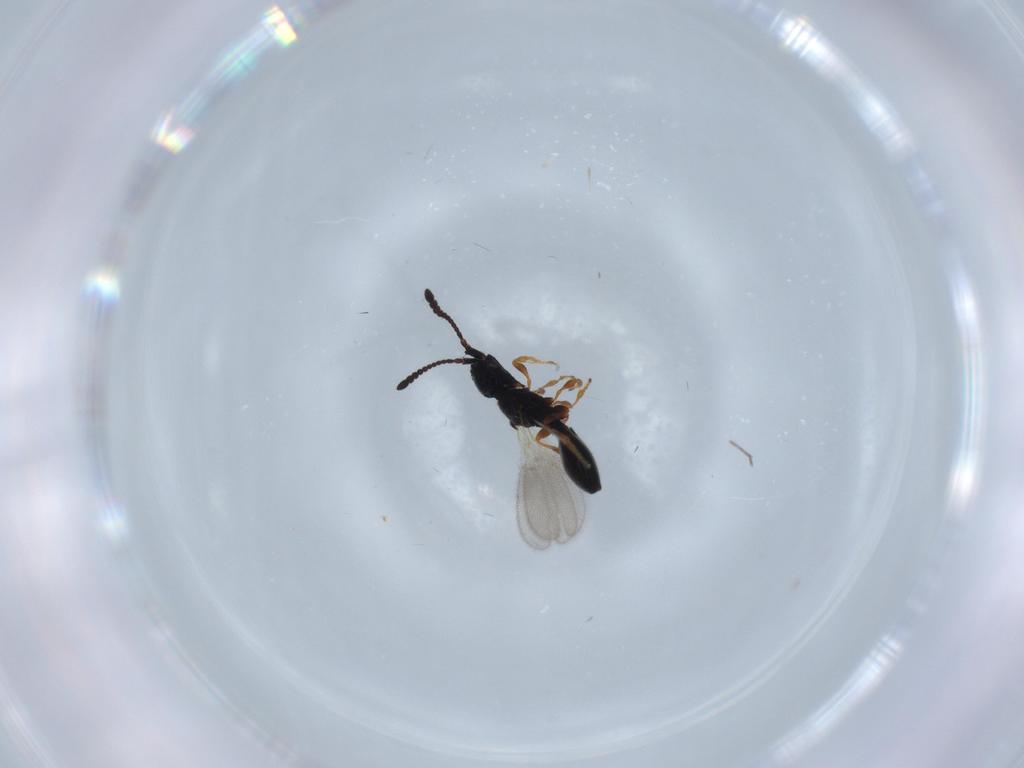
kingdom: Animalia
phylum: Arthropoda
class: Insecta
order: Hymenoptera
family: Diapriidae
